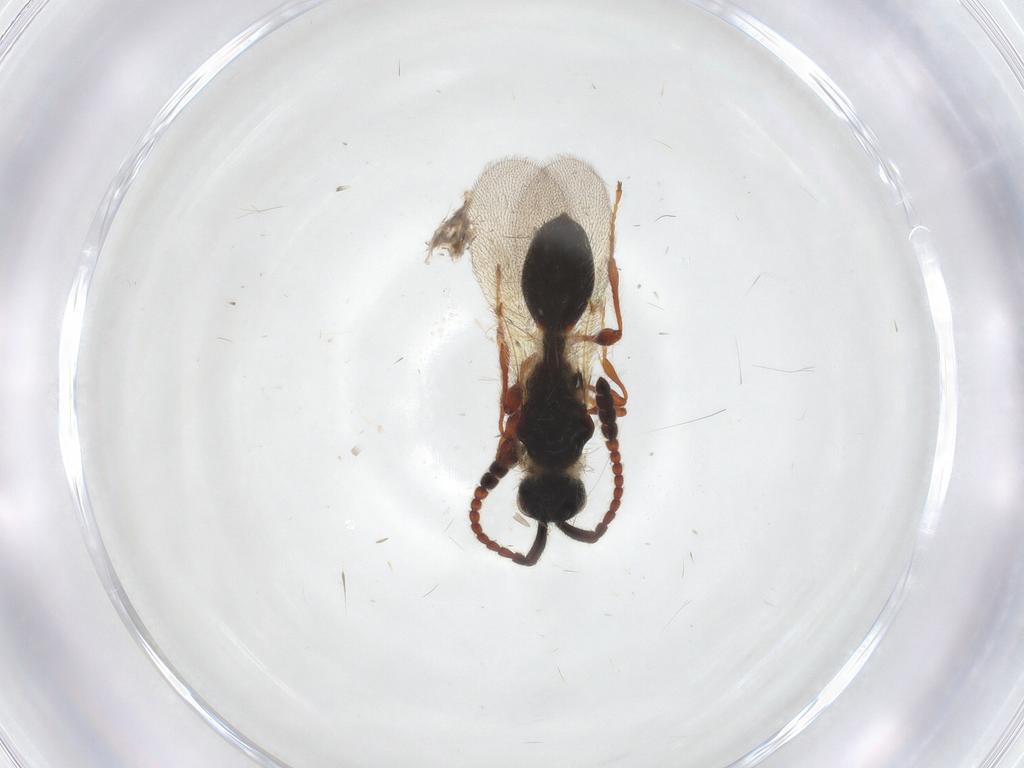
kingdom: Animalia
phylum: Arthropoda
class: Insecta
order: Hymenoptera
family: Diapriidae
